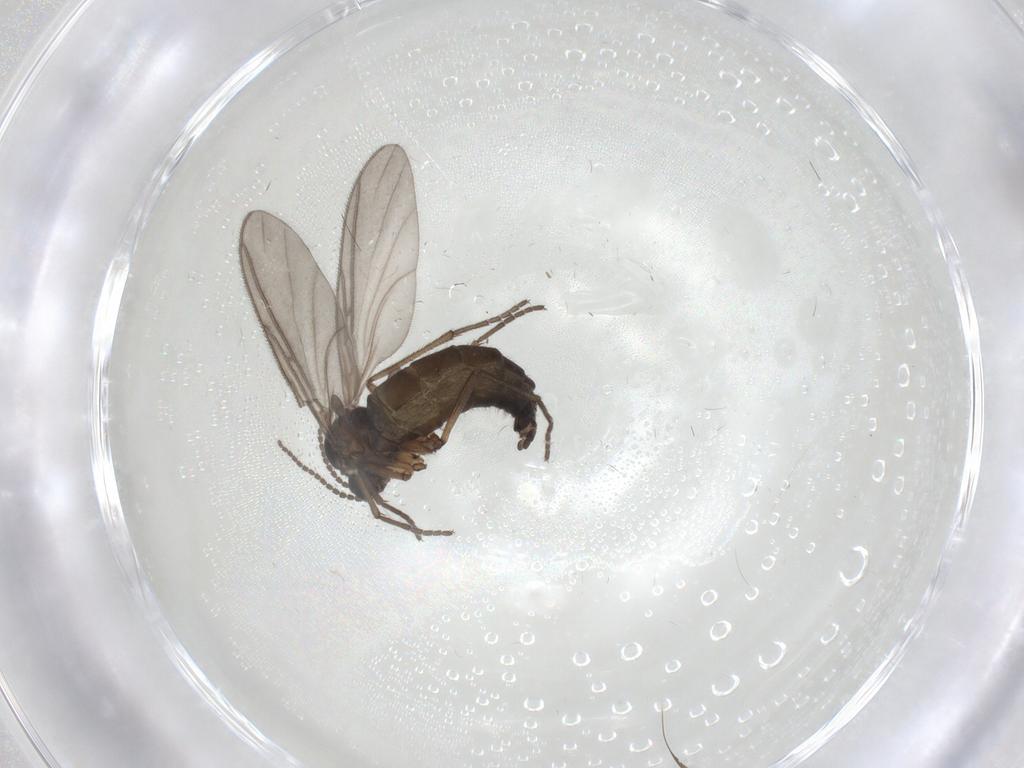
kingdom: Animalia
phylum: Arthropoda
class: Insecta
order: Diptera
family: Sciaridae
